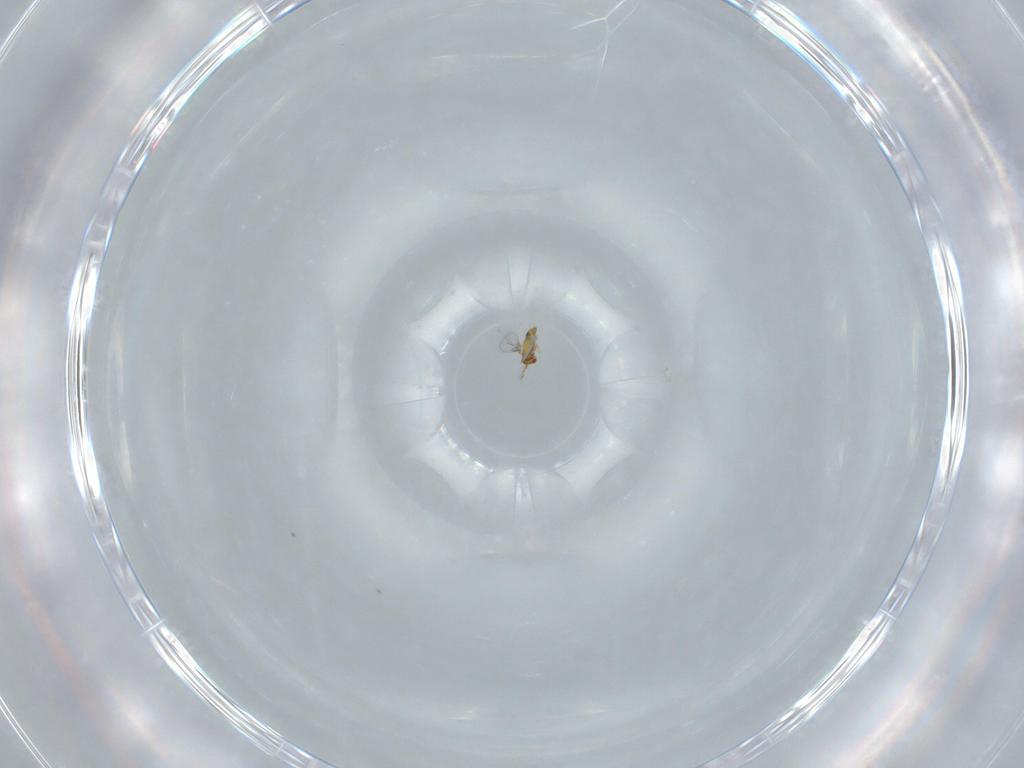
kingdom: Animalia
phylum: Arthropoda
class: Insecta
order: Hymenoptera
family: Trichogrammatidae
